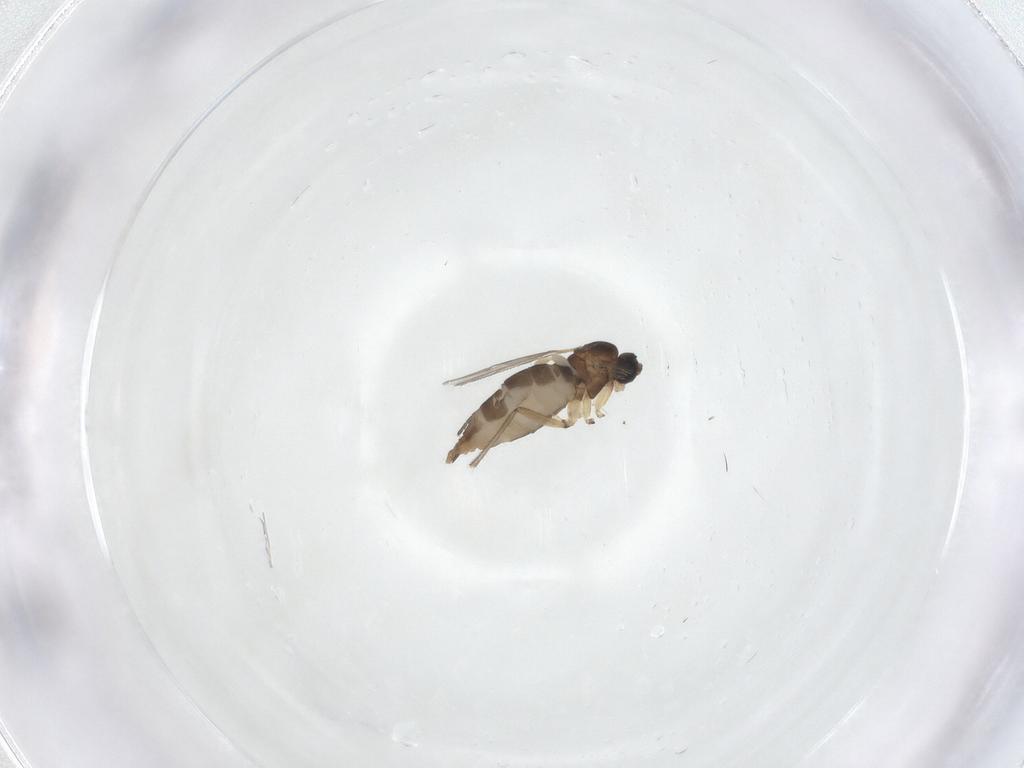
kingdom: Animalia
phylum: Arthropoda
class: Insecta
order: Diptera
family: Sciaridae
